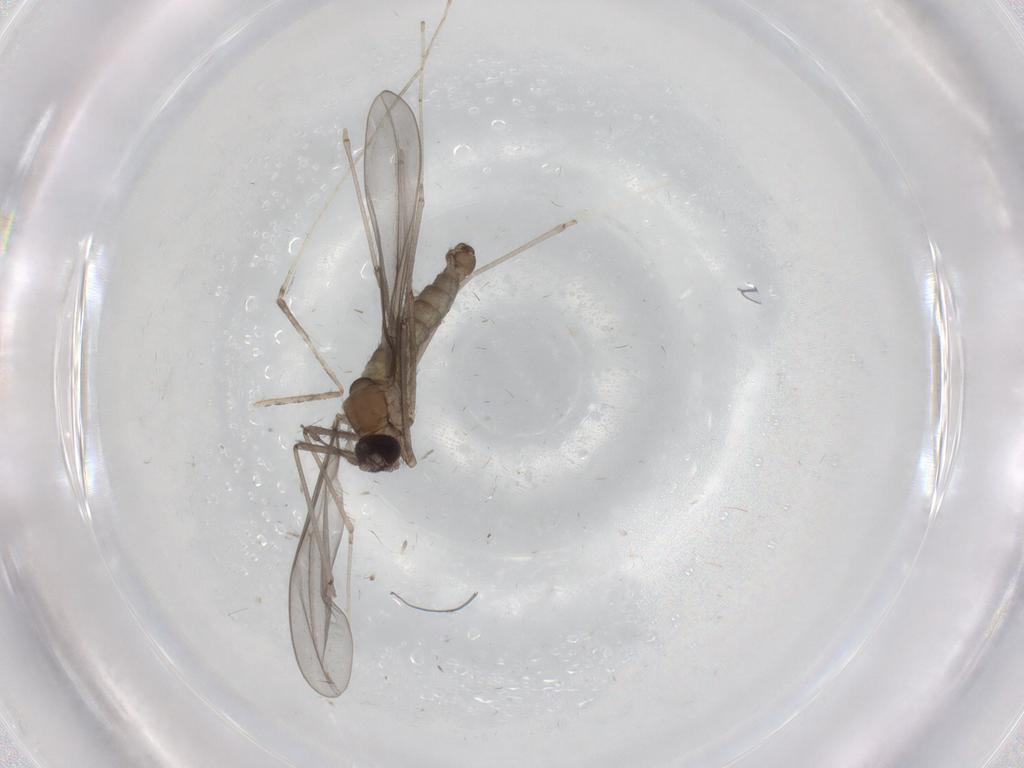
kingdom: Animalia
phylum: Arthropoda
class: Insecta
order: Diptera
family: Cecidomyiidae
